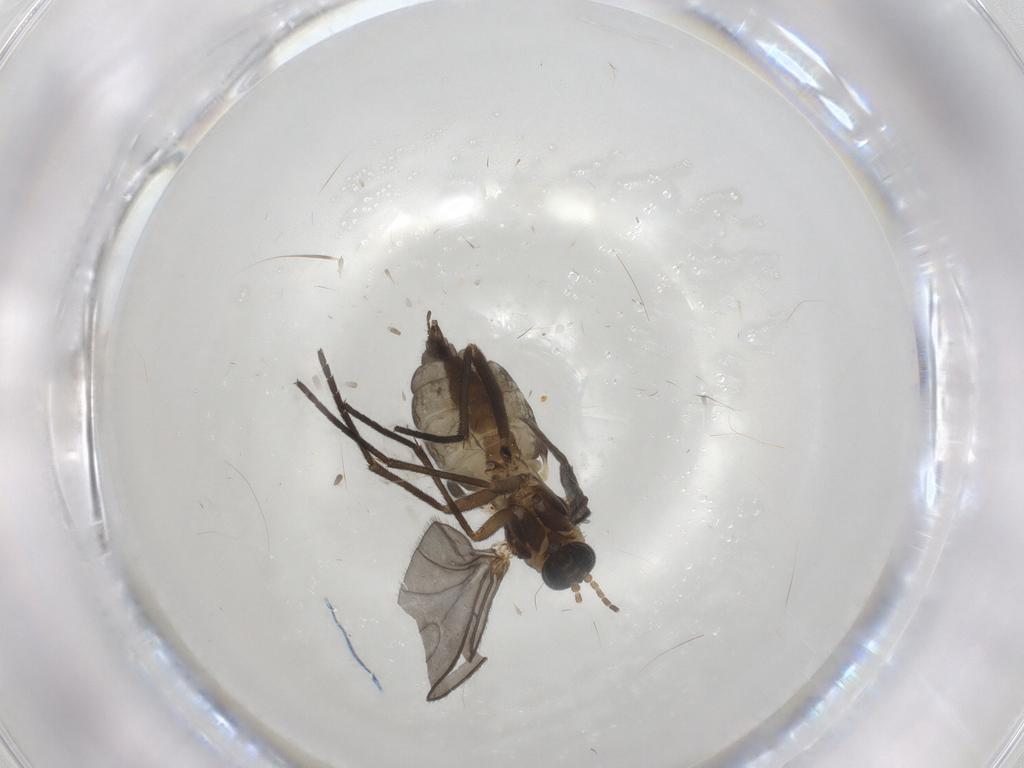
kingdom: Animalia
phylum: Arthropoda
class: Insecta
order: Diptera
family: Sciaridae
